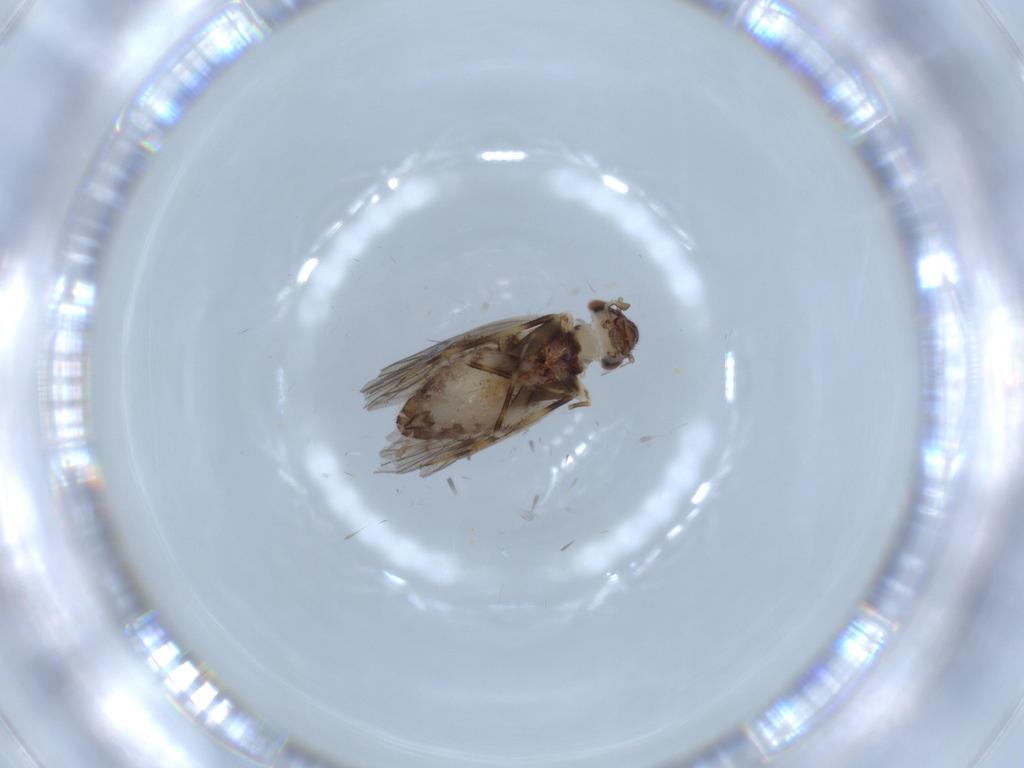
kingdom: Animalia
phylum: Arthropoda
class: Insecta
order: Psocodea
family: Lepidopsocidae
